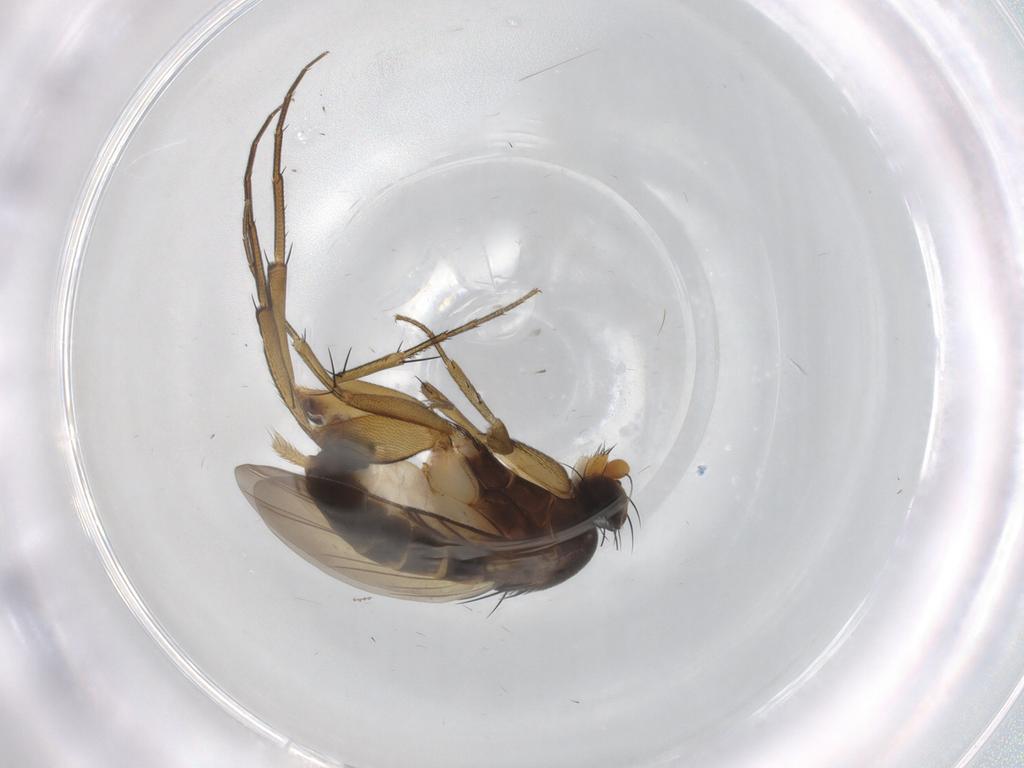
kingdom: Animalia
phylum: Arthropoda
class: Insecta
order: Diptera
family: Phoridae
